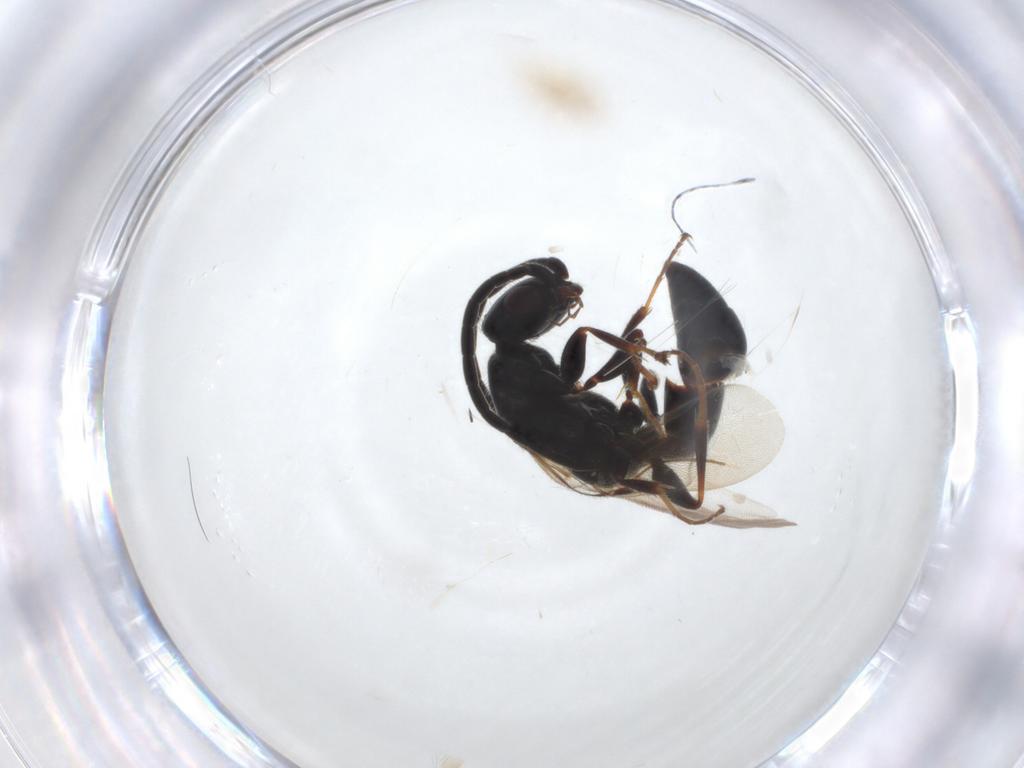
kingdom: Animalia
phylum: Arthropoda
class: Insecta
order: Hymenoptera
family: Bethylidae
